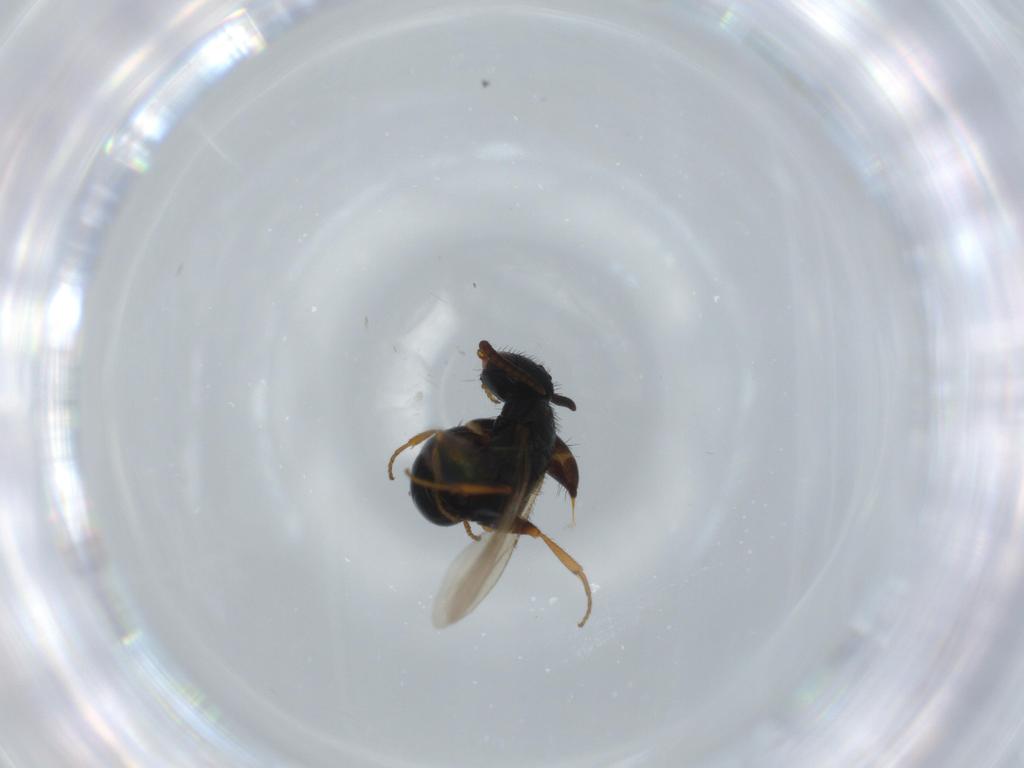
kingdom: Animalia
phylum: Arthropoda
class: Insecta
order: Hymenoptera
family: Bethylidae
